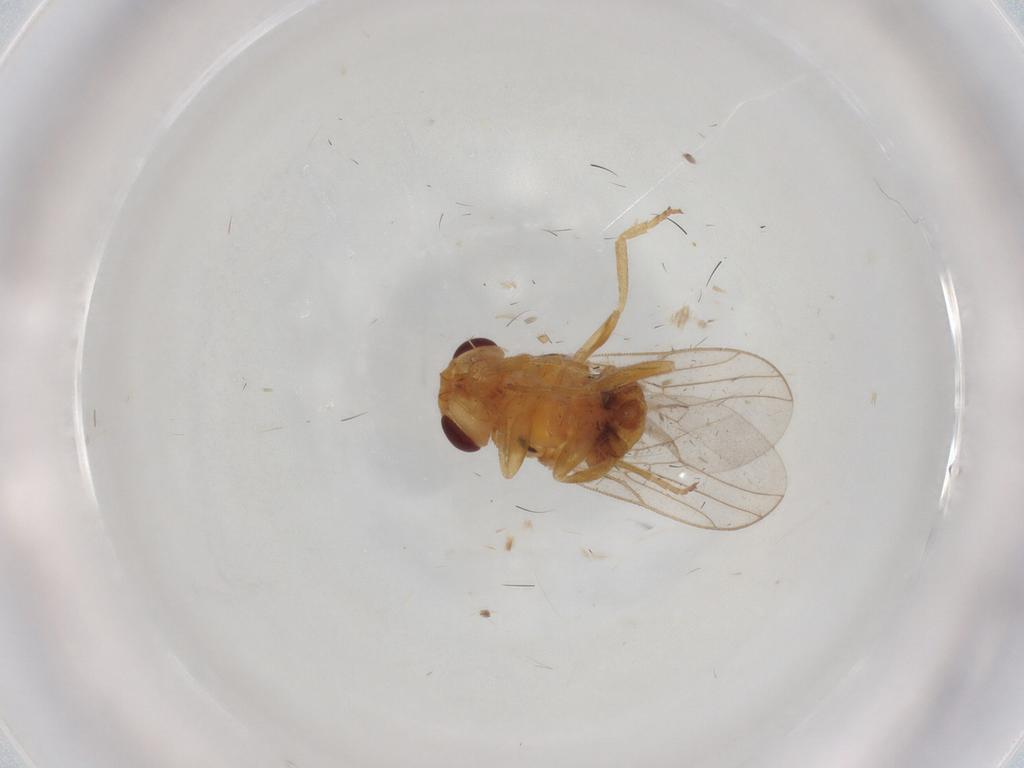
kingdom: Animalia
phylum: Arthropoda
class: Insecta
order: Diptera
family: Chloropidae
